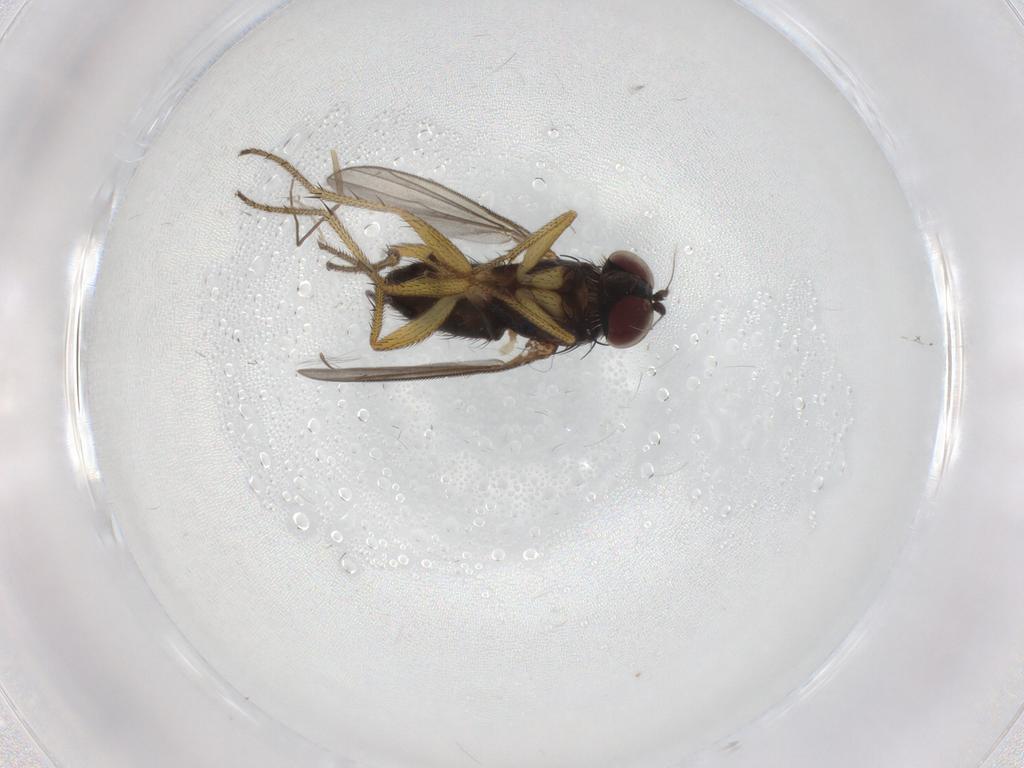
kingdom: Animalia
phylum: Arthropoda
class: Insecta
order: Diptera
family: Chironomidae
